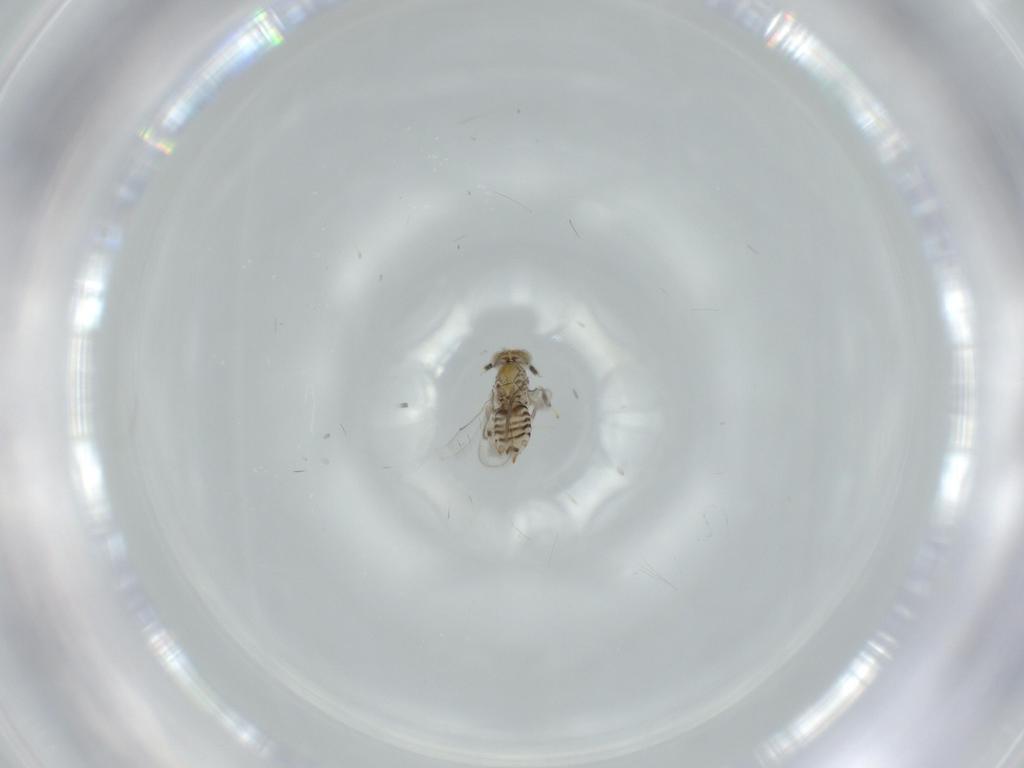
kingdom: Animalia
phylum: Arthropoda
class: Insecta
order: Hymenoptera
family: Aphelinidae
